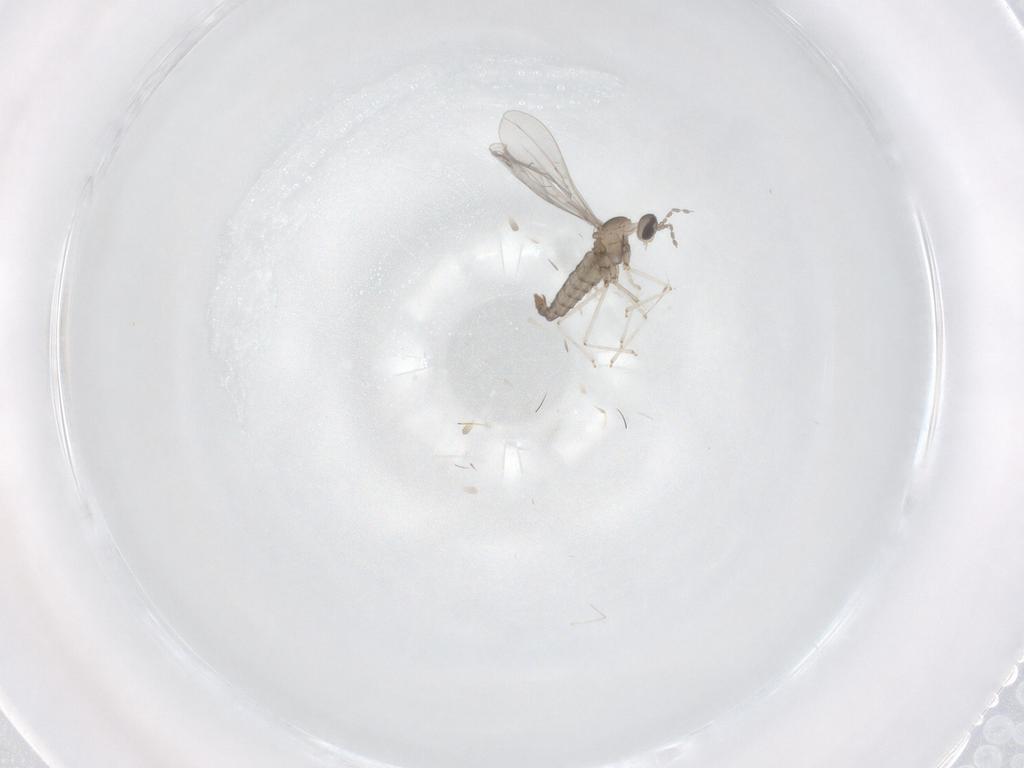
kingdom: Animalia
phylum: Arthropoda
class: Insecta
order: Diptera
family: Cecidomyiidae
